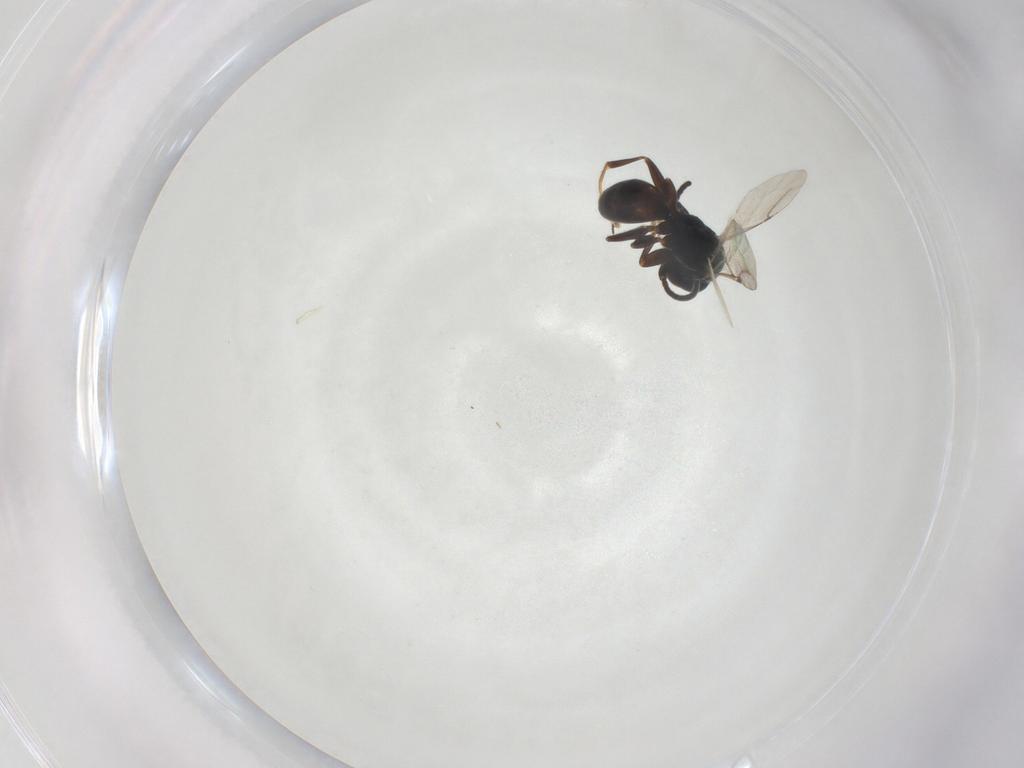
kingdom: Animalia
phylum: Arthropoda
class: Insecta
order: Hymenoptera
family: Bethylidae
